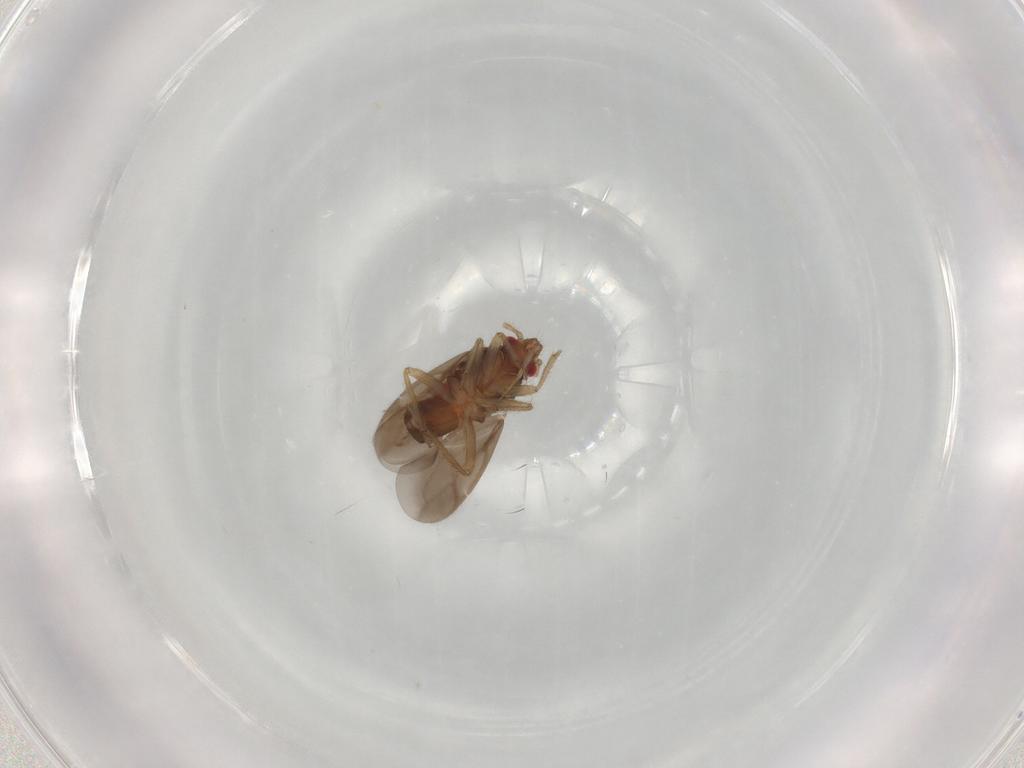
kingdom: Animalia
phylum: Arthropoda
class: Insecta
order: Hemiptera
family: Ceratocombidae
